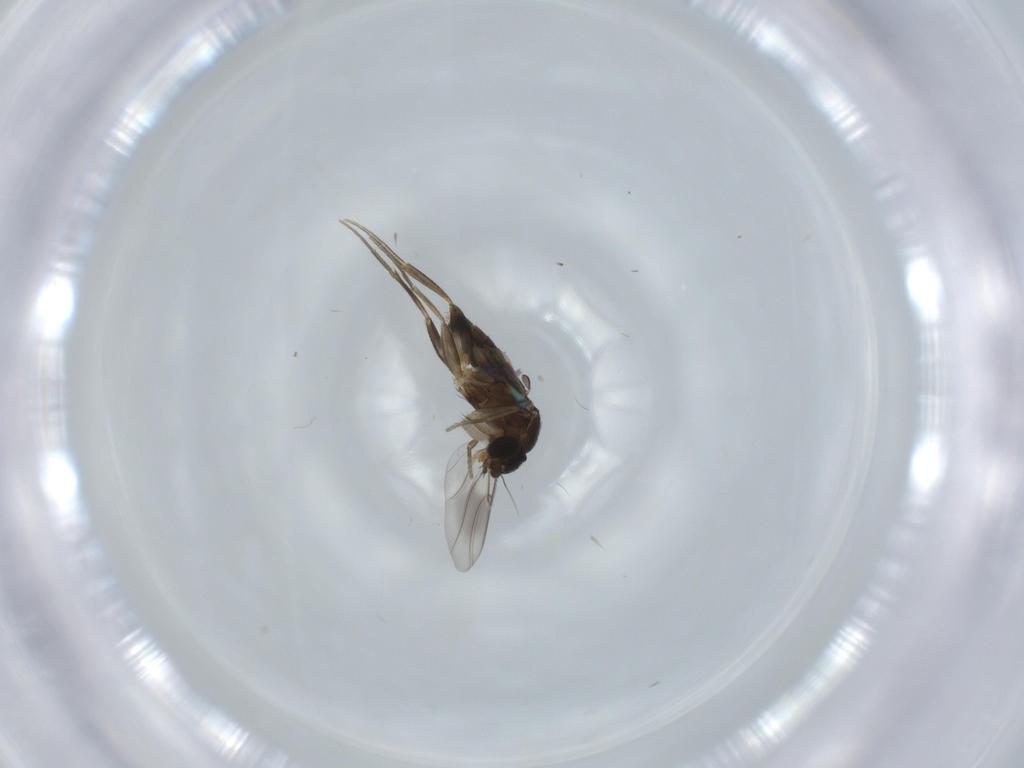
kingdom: Animalia
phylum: Arthropoda
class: Insecta
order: Diptera
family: Phoridae
